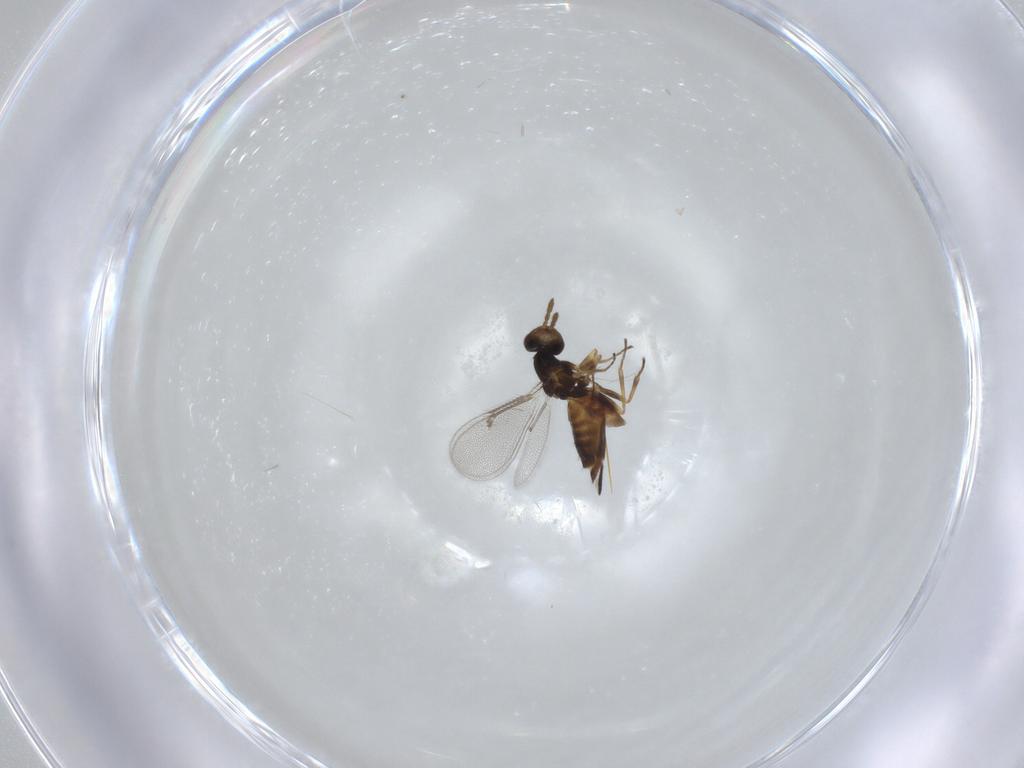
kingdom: Animalia
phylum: Arthropoda
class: Insecta
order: Hymenoptera
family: Eulophidae
